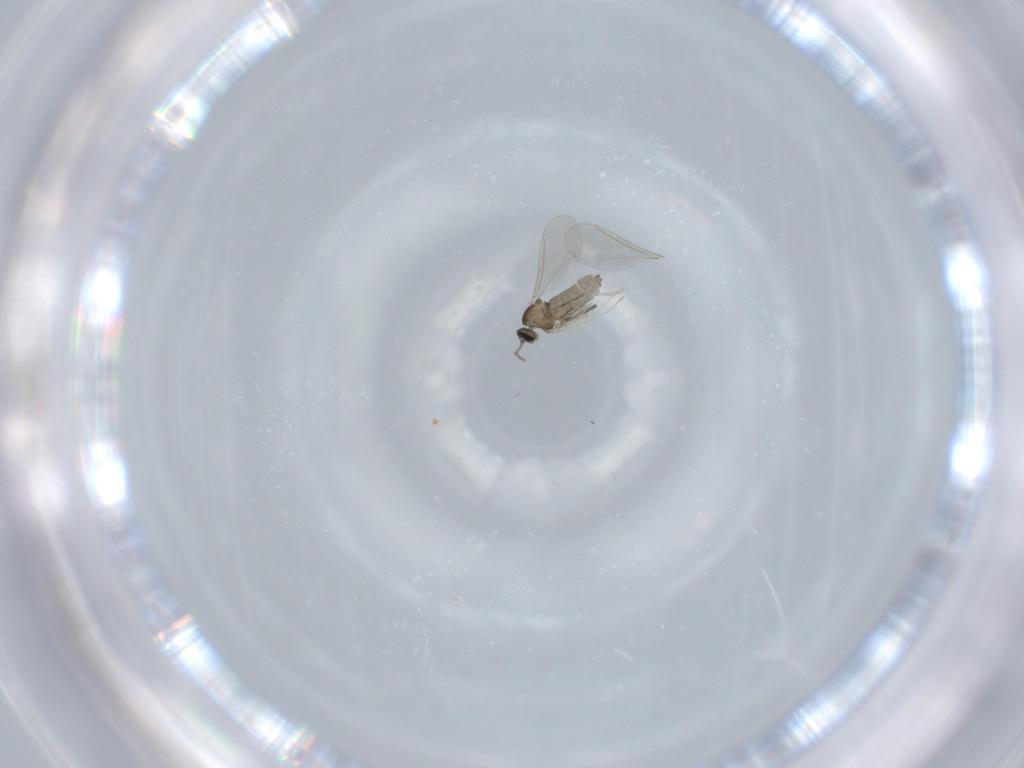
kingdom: Animalia
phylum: Arthropoda
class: Insecta
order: Diptera
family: Cecidomyiidae
